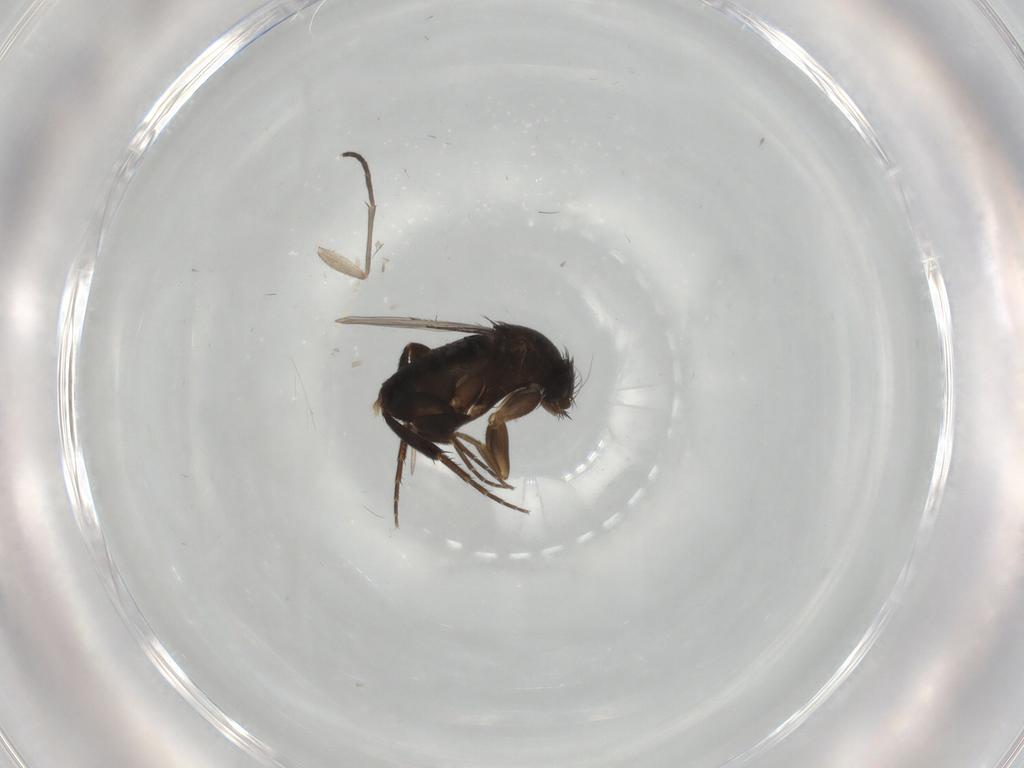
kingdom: Animalia
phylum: Arthropoda
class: Insecta
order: Diptera
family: Phoridae
